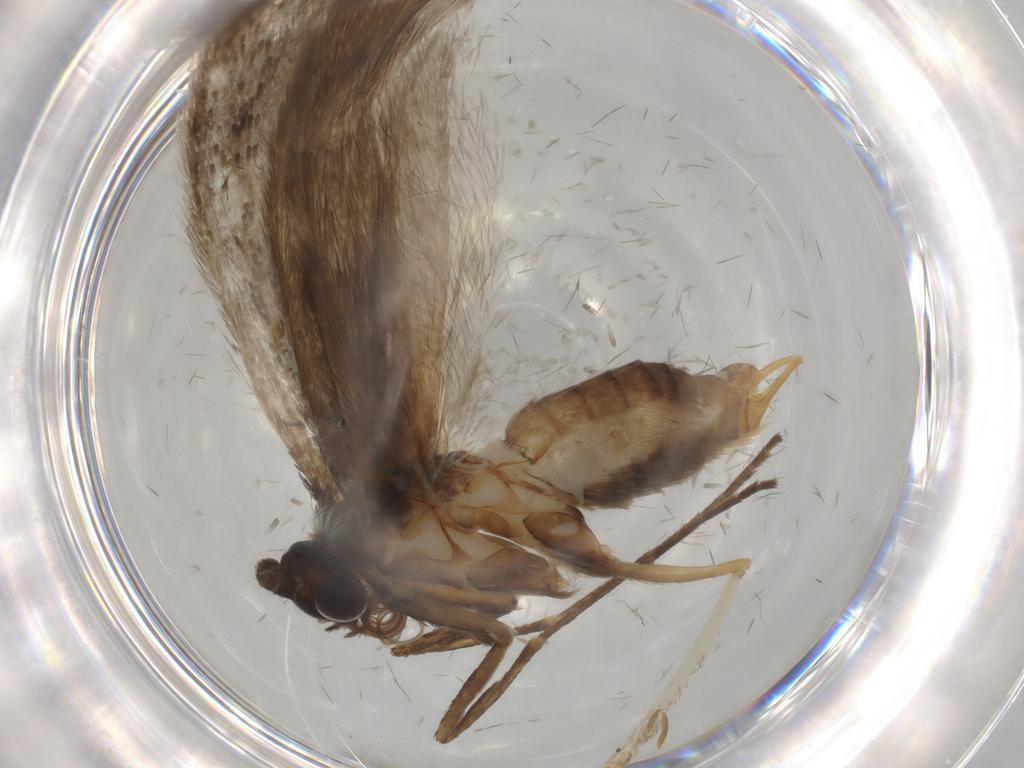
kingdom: Animalia
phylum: Arthropoda
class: Insecta
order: Lepidoptera
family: Adelidae
